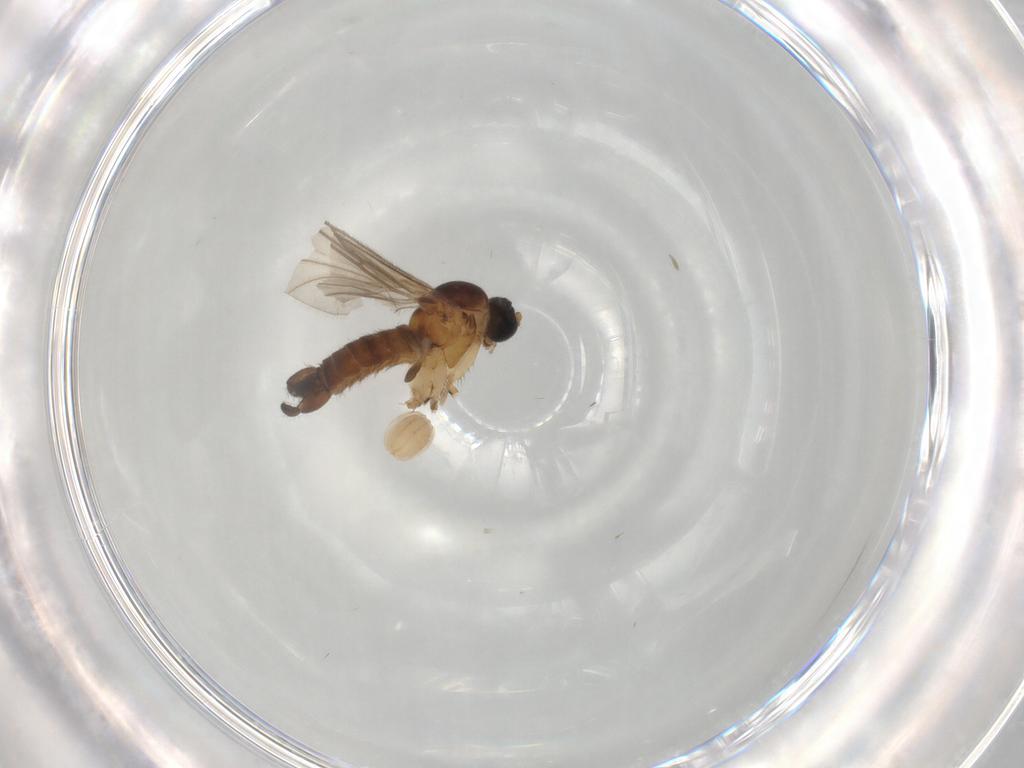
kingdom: Animalia
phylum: Arthropoda
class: Insecta
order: Diptera
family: Sciaridae
